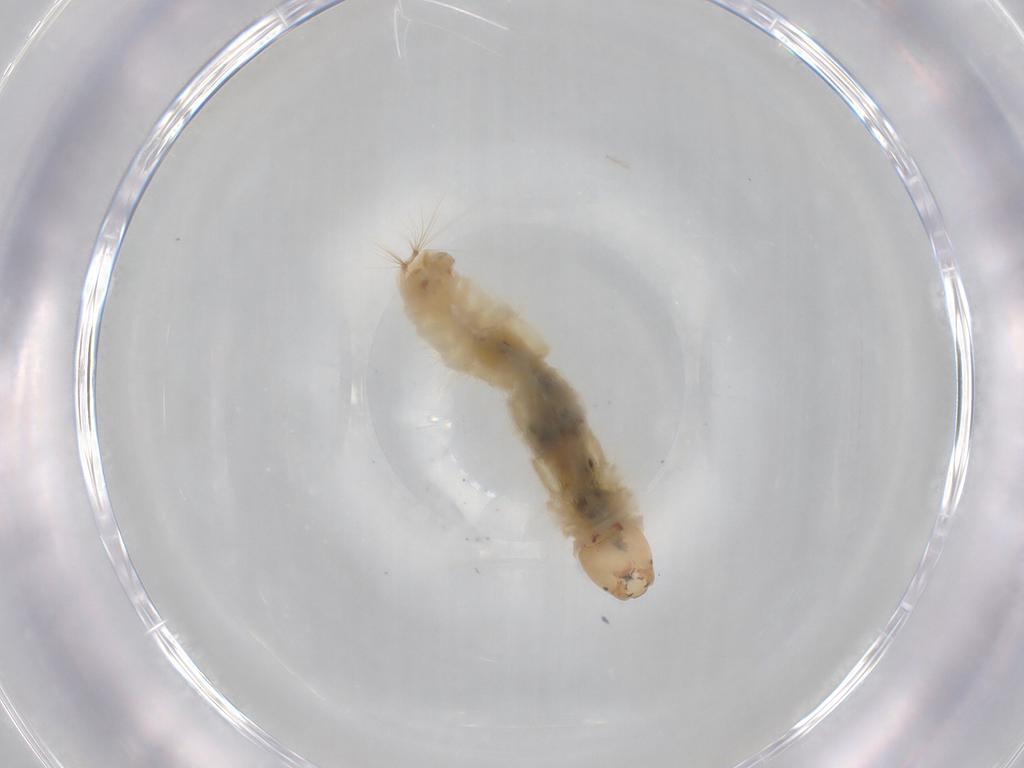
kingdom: Animalia
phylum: Arthropoda
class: Insecta
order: Diptera
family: Chironomidae
